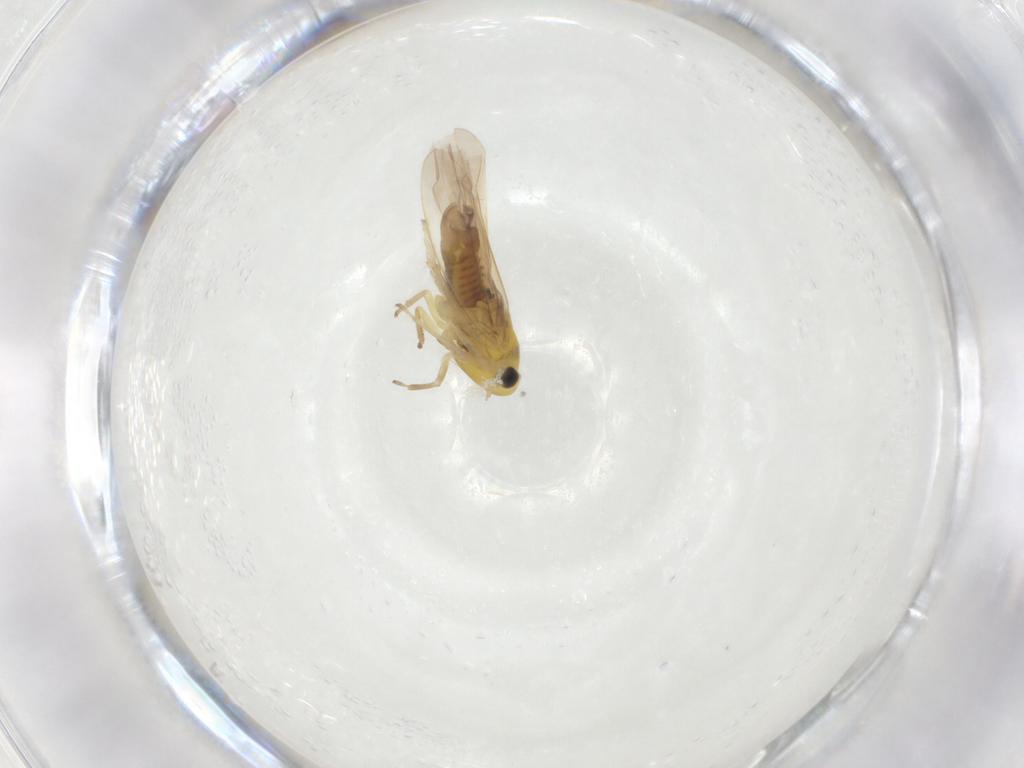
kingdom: Animalia
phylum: Arthropoda
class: Insecta
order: Hemiptera
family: Cicadellidae
